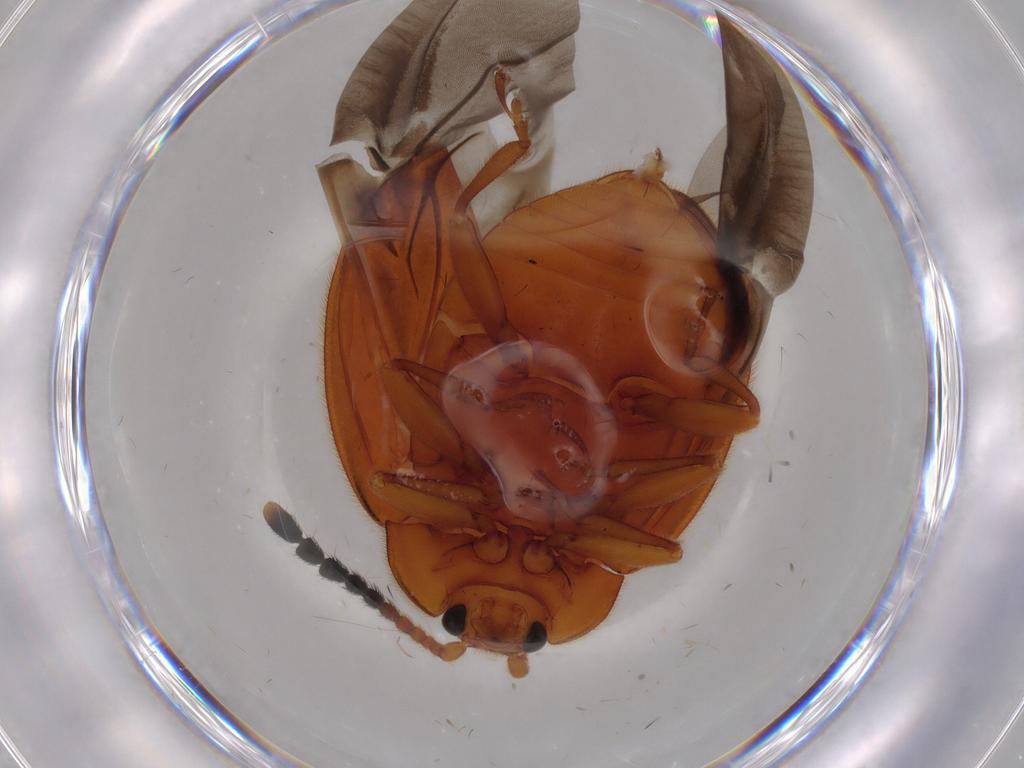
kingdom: Animalia
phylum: Arthropoda
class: Insecta
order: Coleoptera
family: Endomychidae
